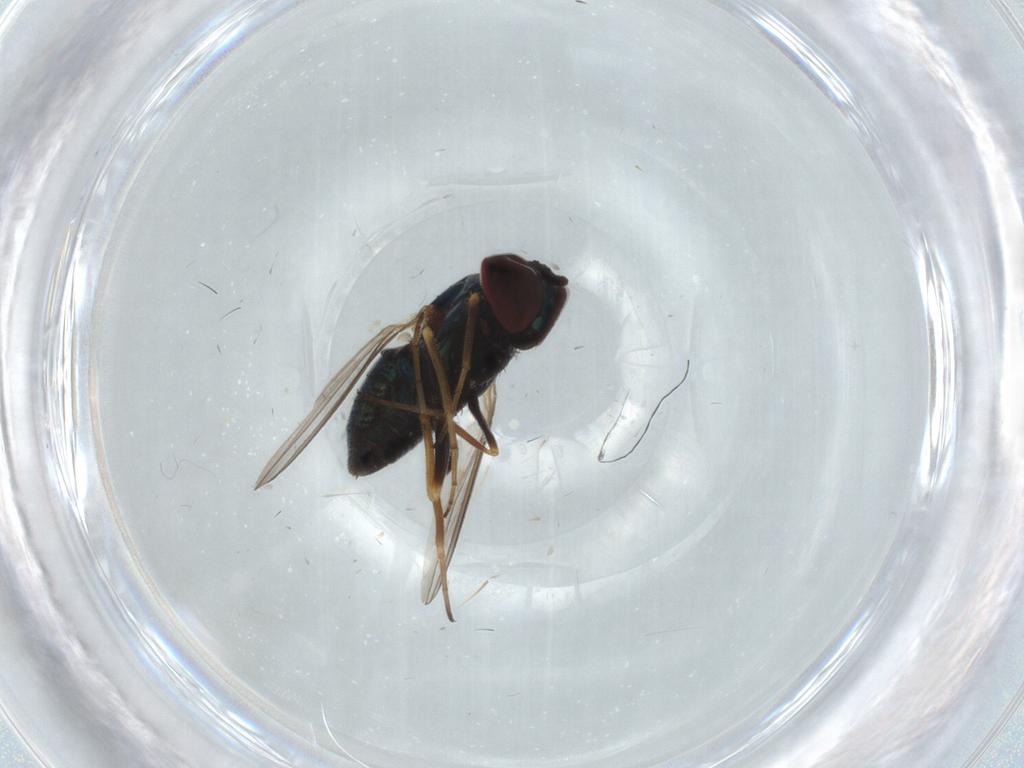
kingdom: Animalia
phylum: Arthropoda
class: Insecta
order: Diptera
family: Dolichopodidae
